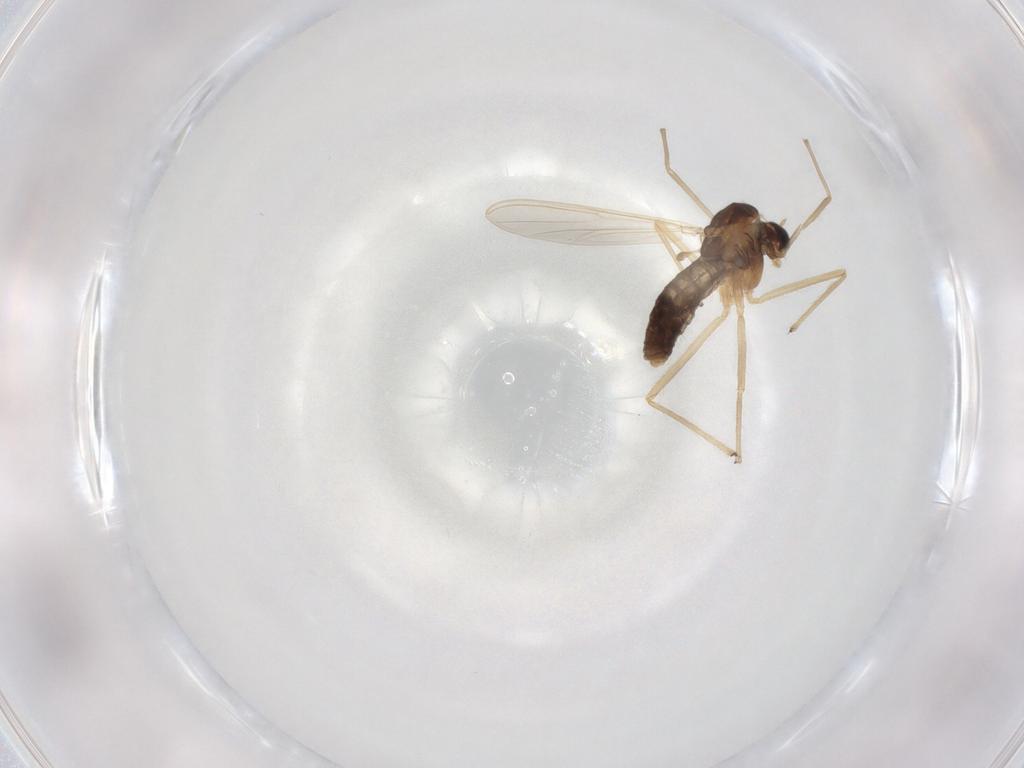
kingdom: Animalia
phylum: Arthropoda
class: Insecta
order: Diptera
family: Chironomidae
